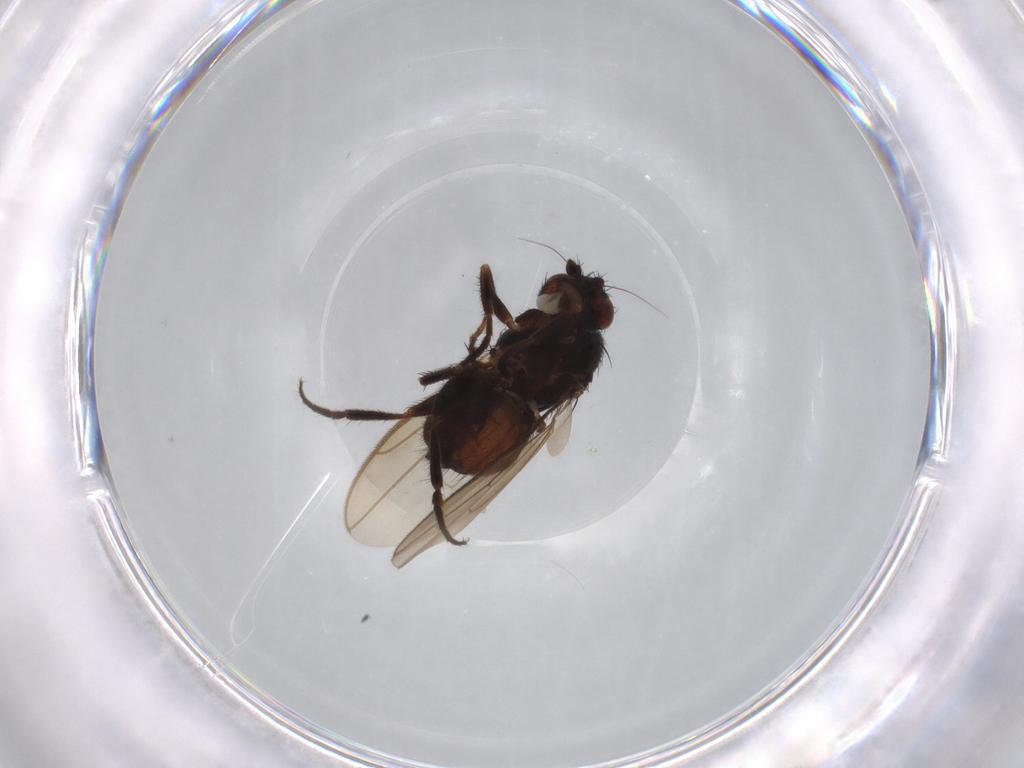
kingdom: Animalia
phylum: Arthropoda
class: Insecta
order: Diptera
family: Sphaeroceridae
